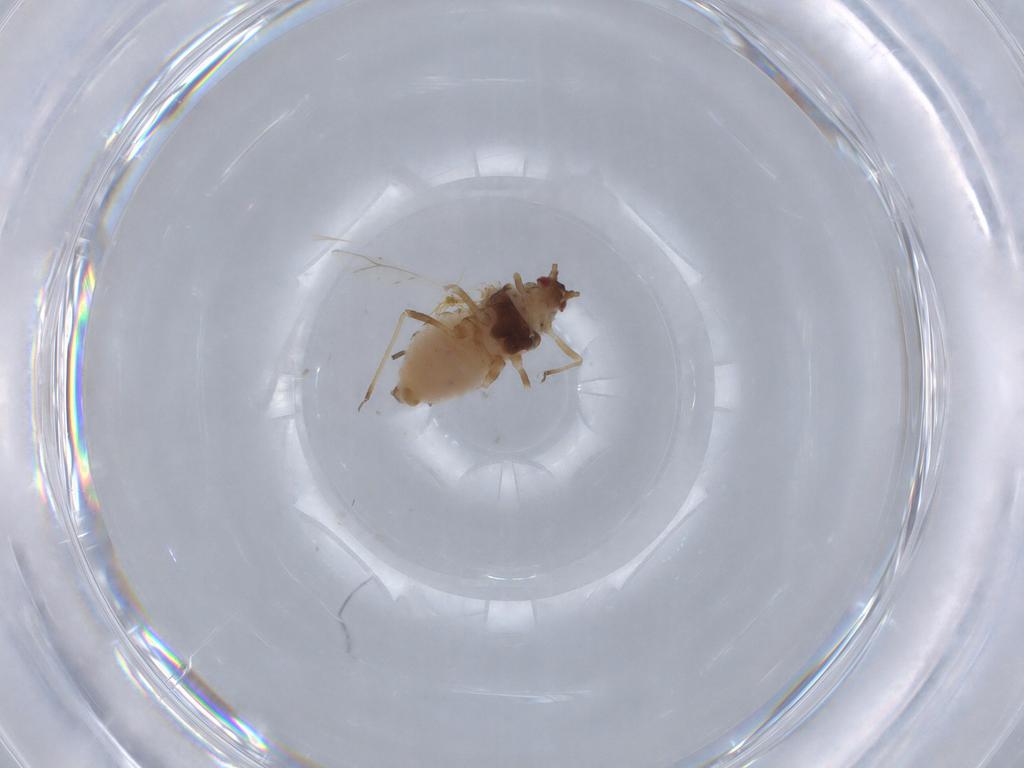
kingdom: Animalia
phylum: Arthropoda
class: Insecta
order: Hemiptera
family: Aphididae
